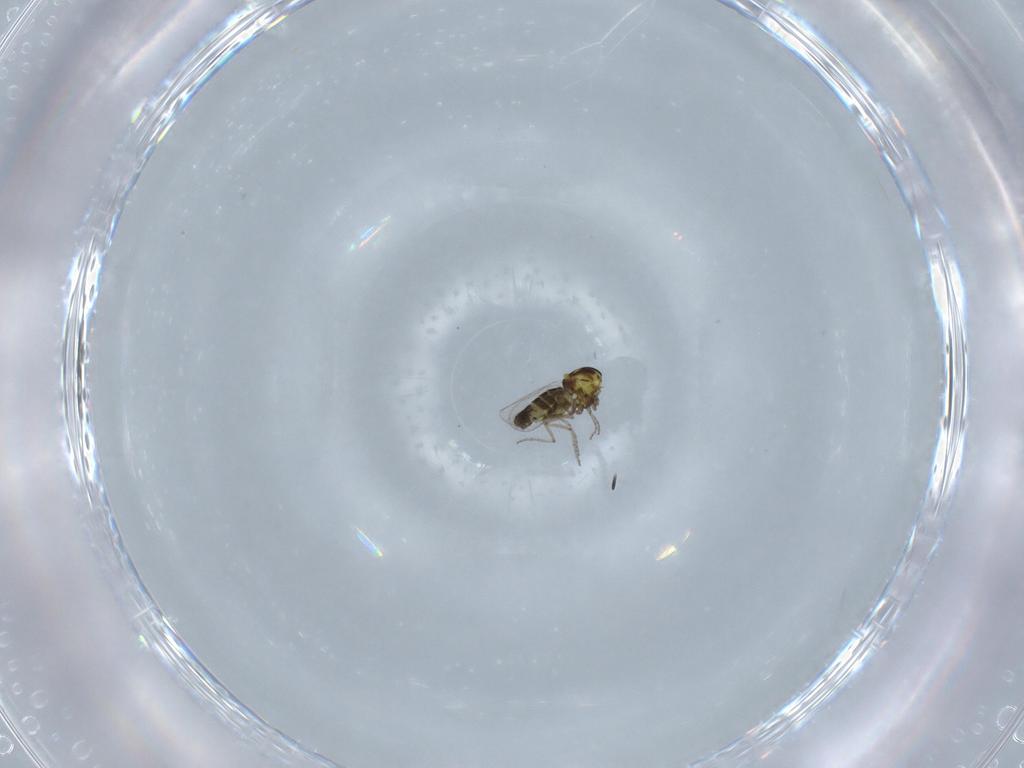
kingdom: Animalia
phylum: Arthropoda
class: Insecta
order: Diptera
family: Ceratopogonidae
